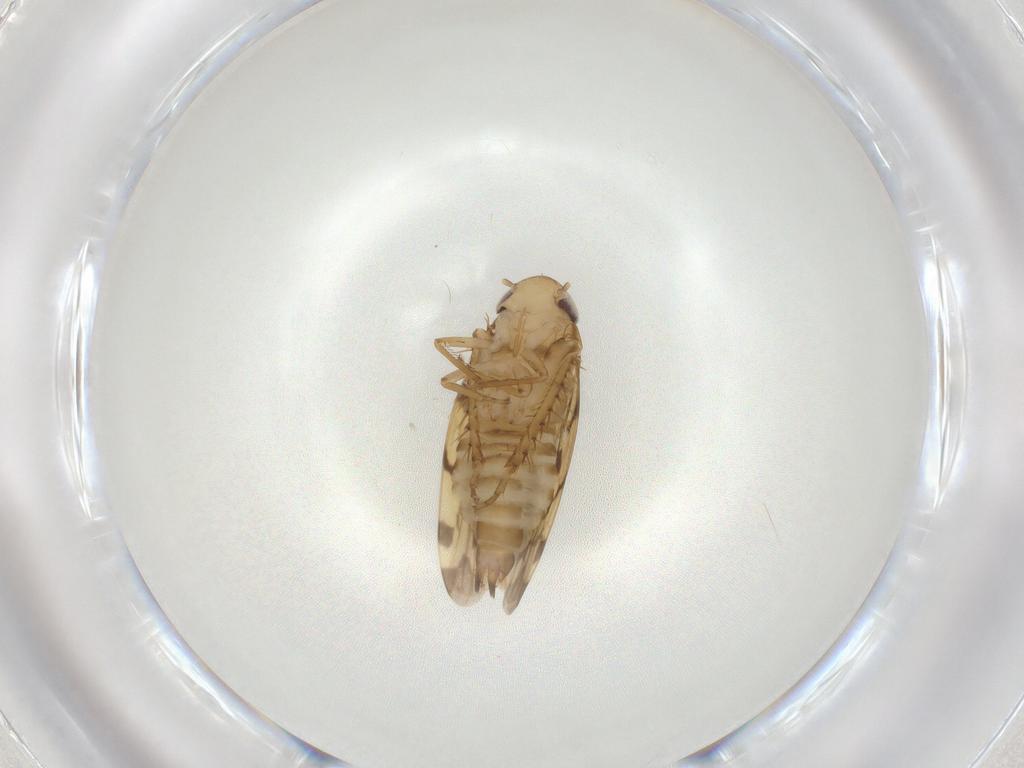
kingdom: Animalia
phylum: Arthropoda
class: Insecta
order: Diptera
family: Cecidomyiidae
